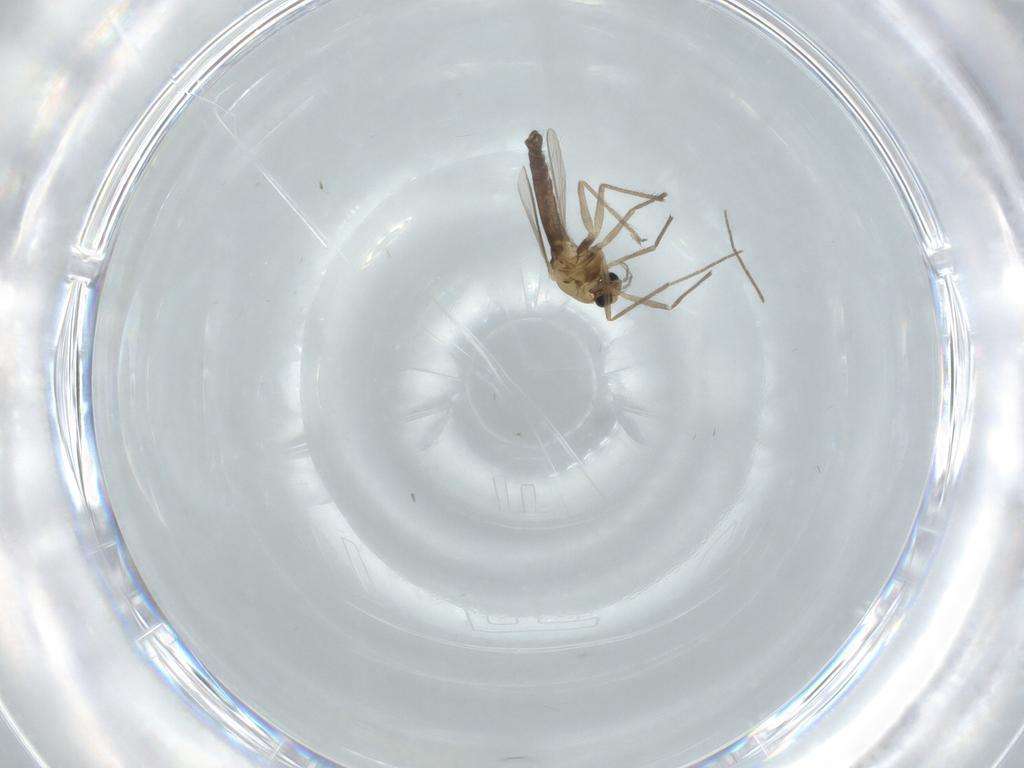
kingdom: Animalia
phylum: Arthropoda
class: Insecta
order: Diptera
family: Chironomidae
